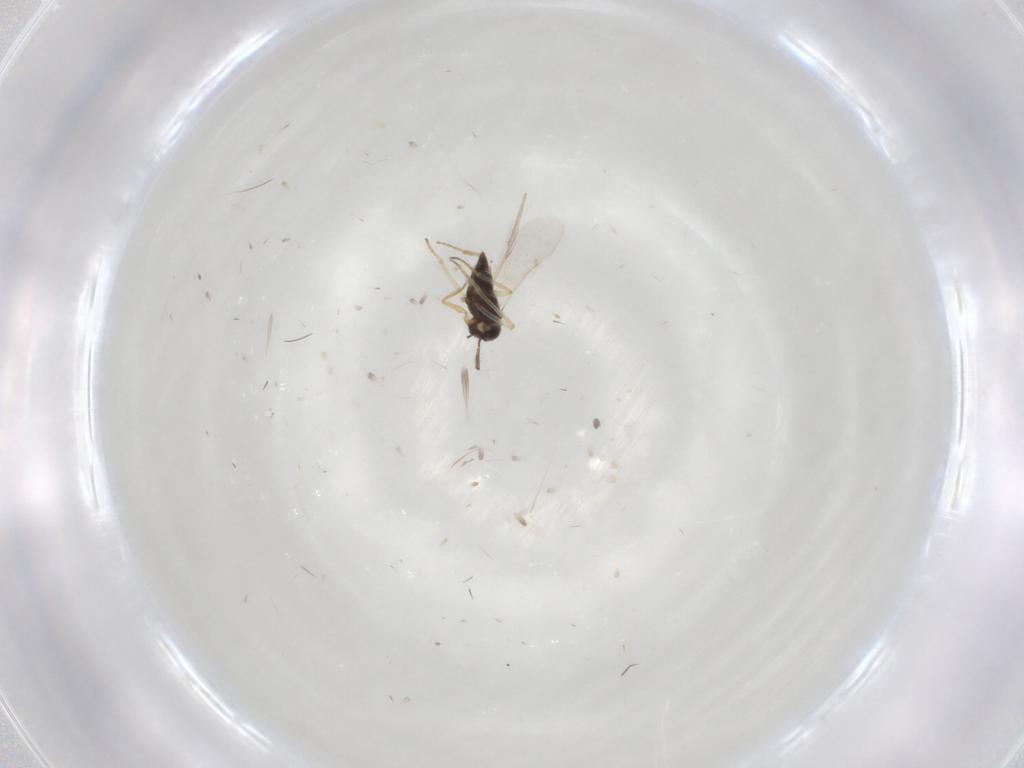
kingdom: Animalia
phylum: Arthropoda
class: Insecta
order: Hymenoptera
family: Encyrtidae
